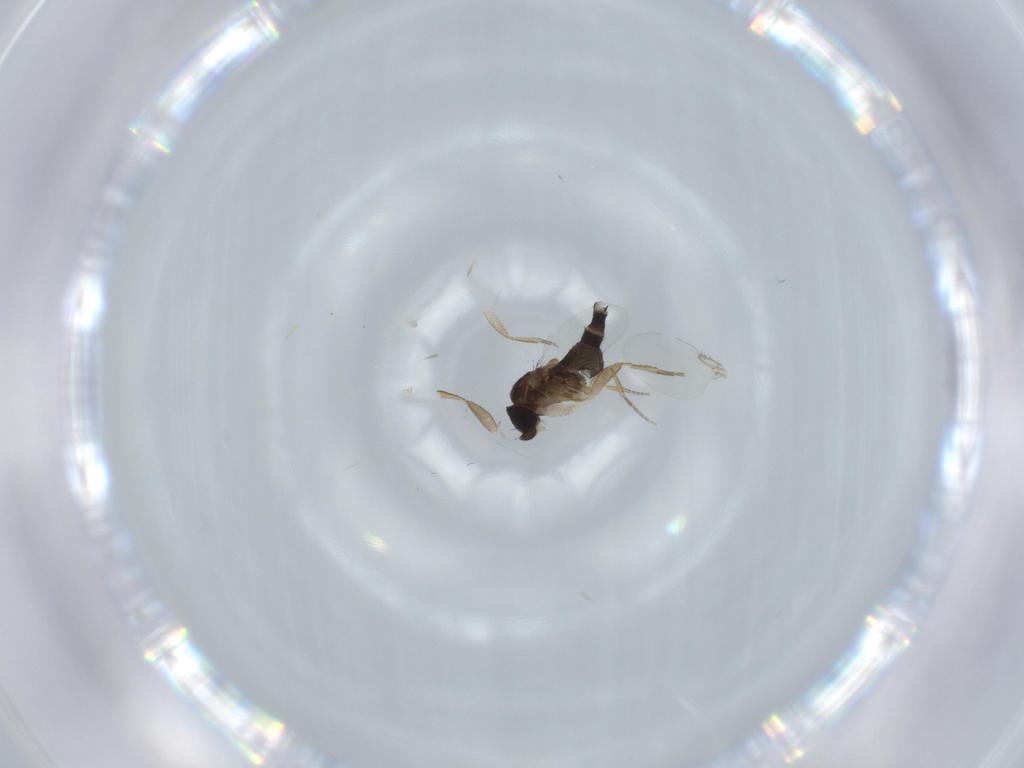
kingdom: Animalia
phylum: Arthropoda
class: Insecta
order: Diptera
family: Phoridae
